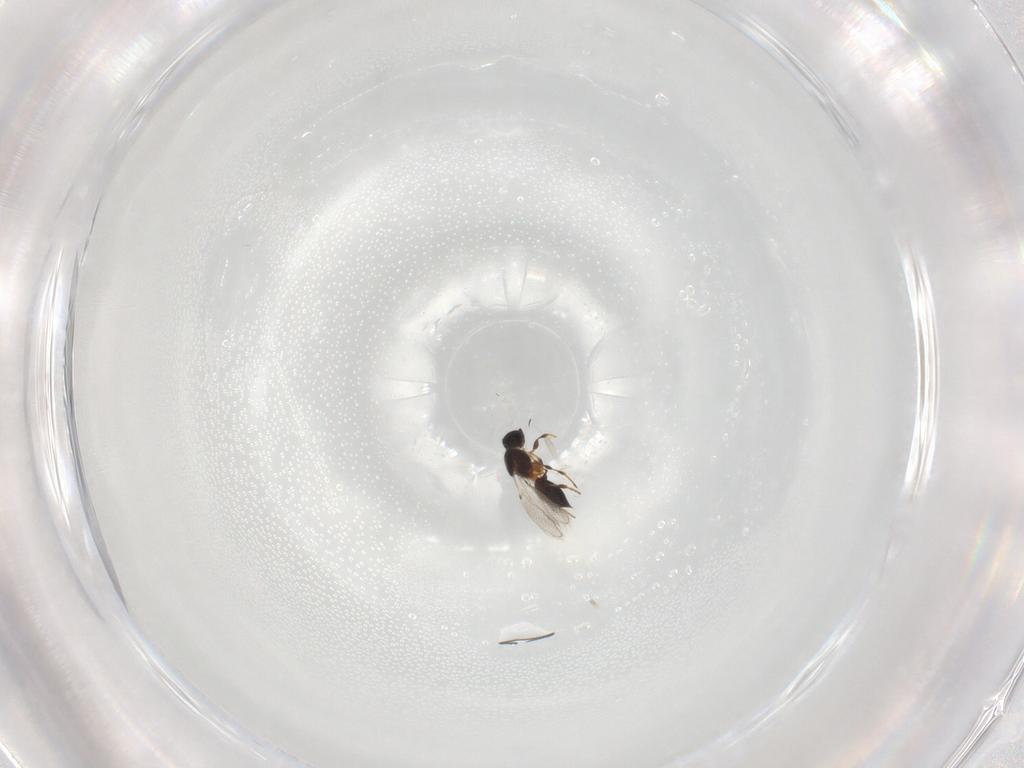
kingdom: Animalia
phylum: Arthropoda
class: Insecta
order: Hymenoptera
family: Diapriidae
